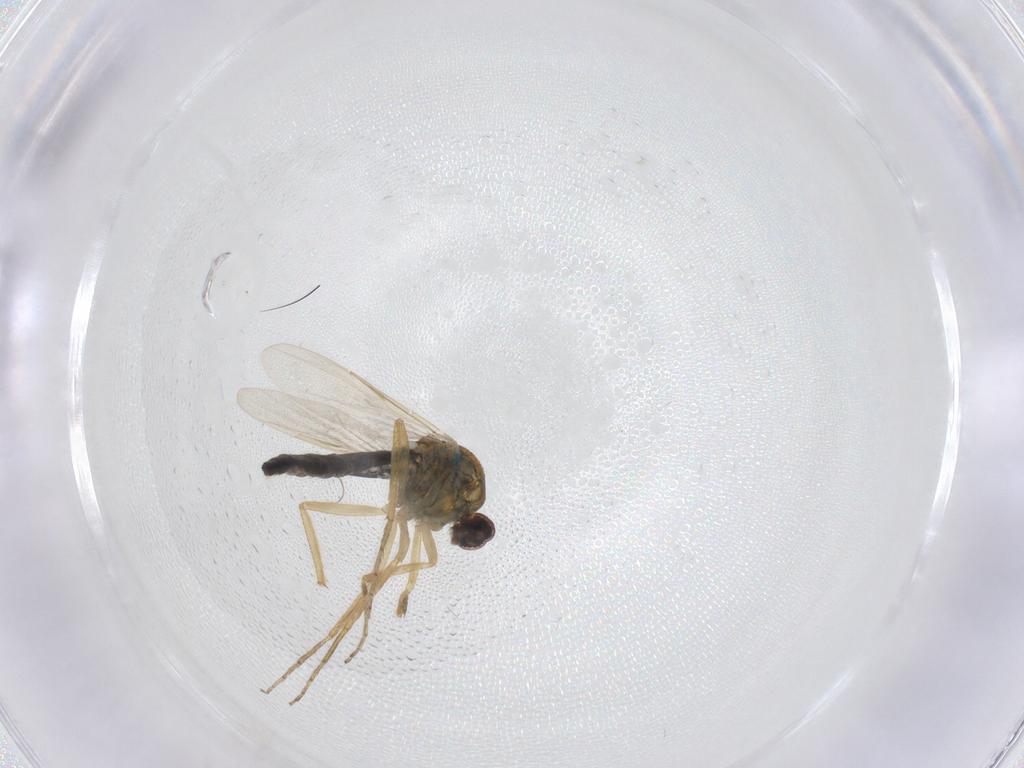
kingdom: Animalia
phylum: Arthropoda
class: Insecta
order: Diptera
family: Ceratopogonidae
